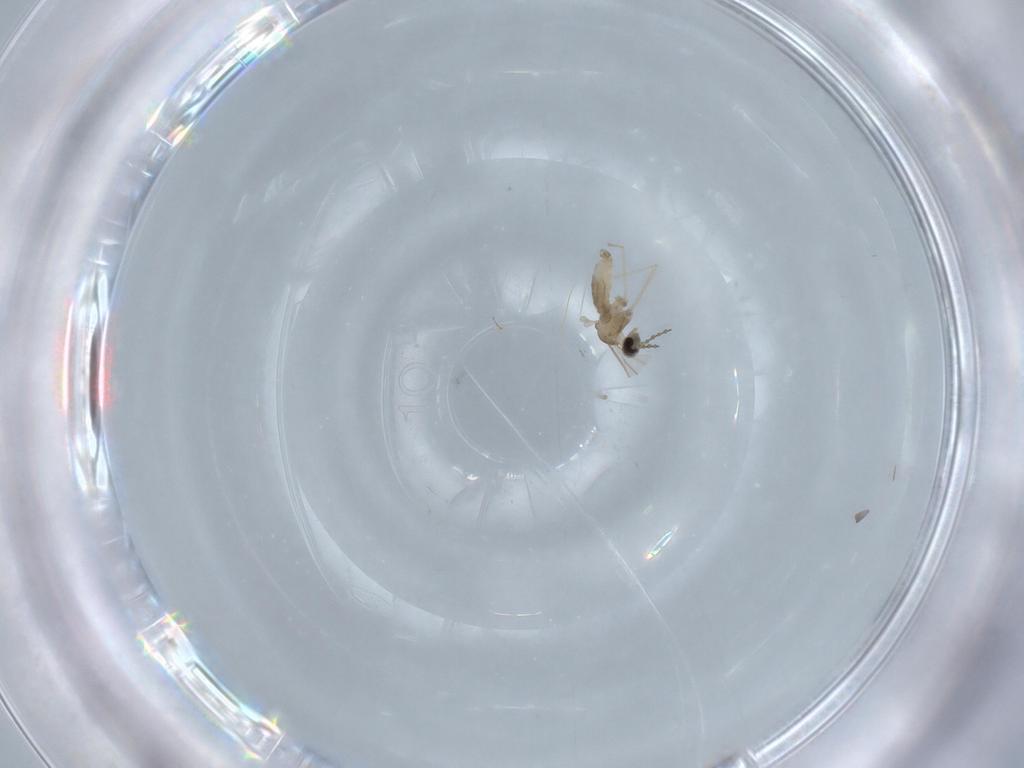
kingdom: Animalia
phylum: Arthropoda
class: Insecta
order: Diptera
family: Cecidomyiidae
